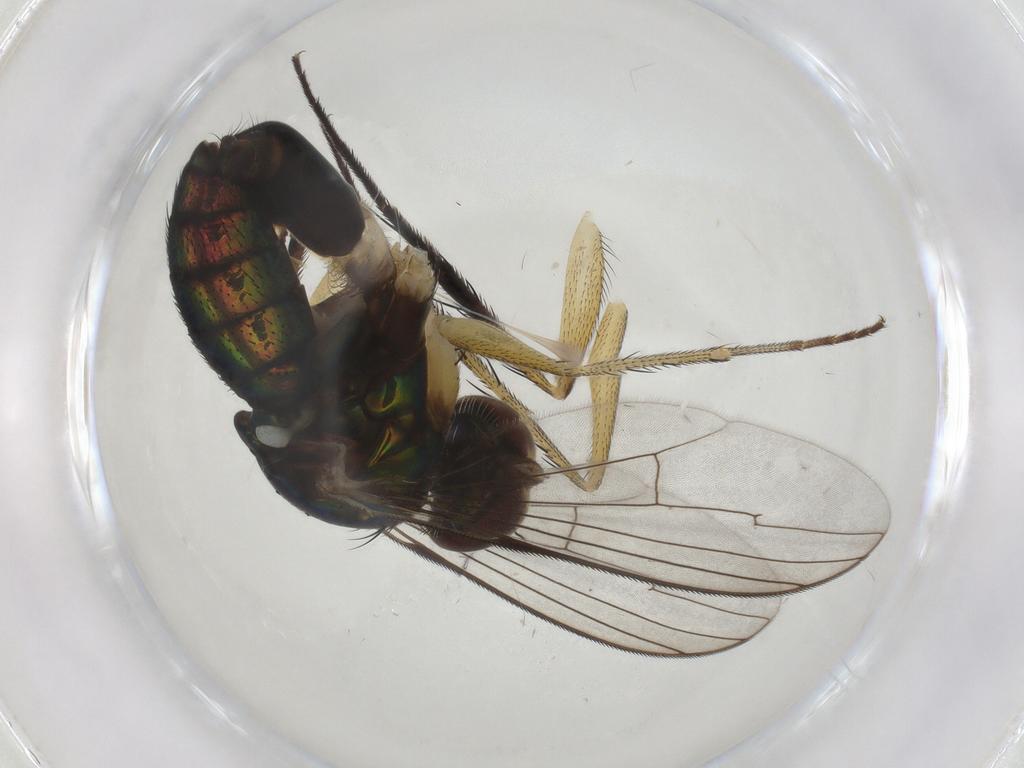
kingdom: Animalia
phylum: Arthropoda
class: Insecta
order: Diptera
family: Dolichopodidae
